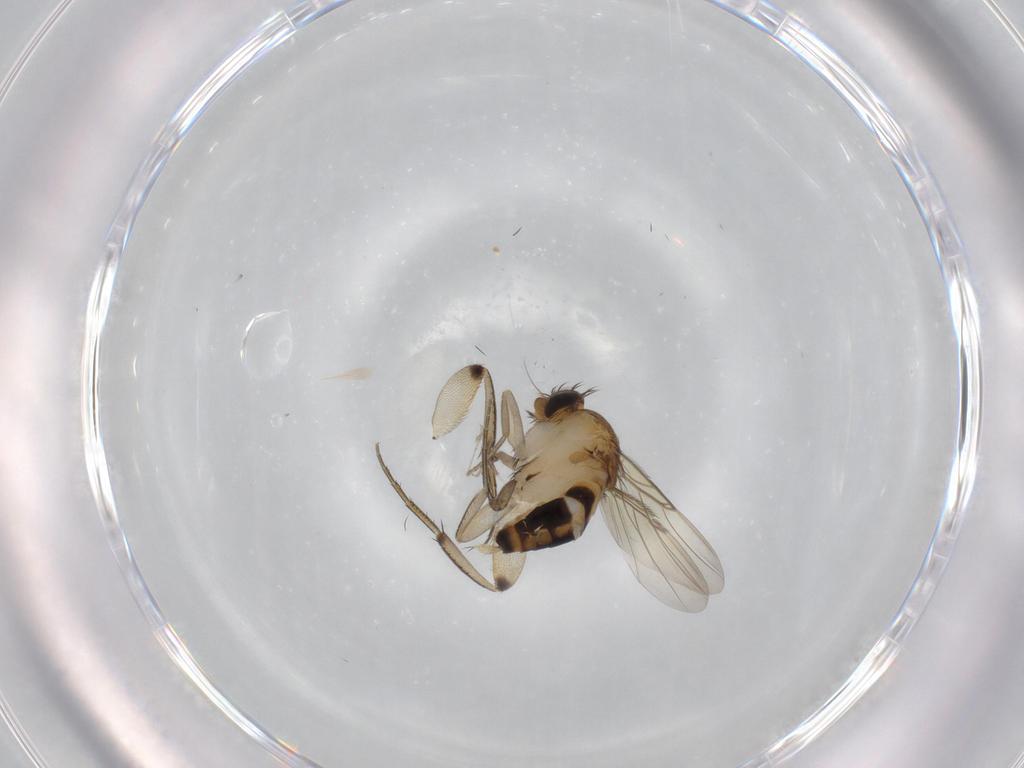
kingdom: Animalia
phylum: Arthropoda
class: Insecta
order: Diptera
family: Phoridae
